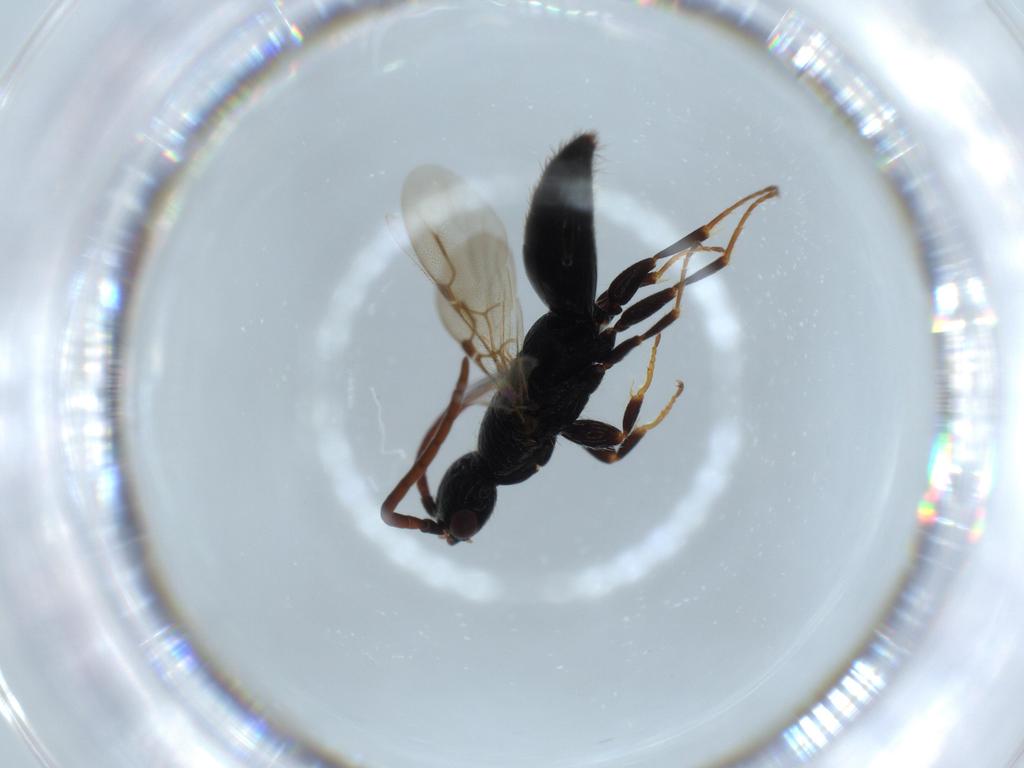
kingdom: Animalia
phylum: Arthropoda
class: Insecta
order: Hymenoptera
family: Bethylidae
